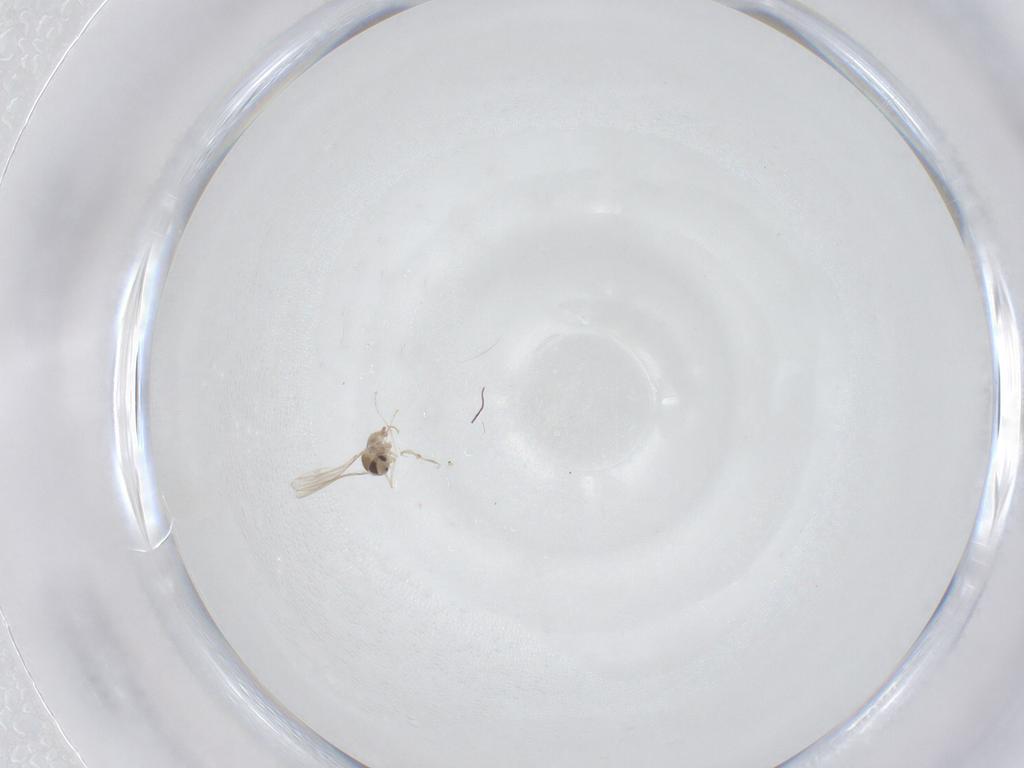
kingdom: Animalia
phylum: Arthropoda
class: Insecta
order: Diptera
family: Cecidomyiidae
